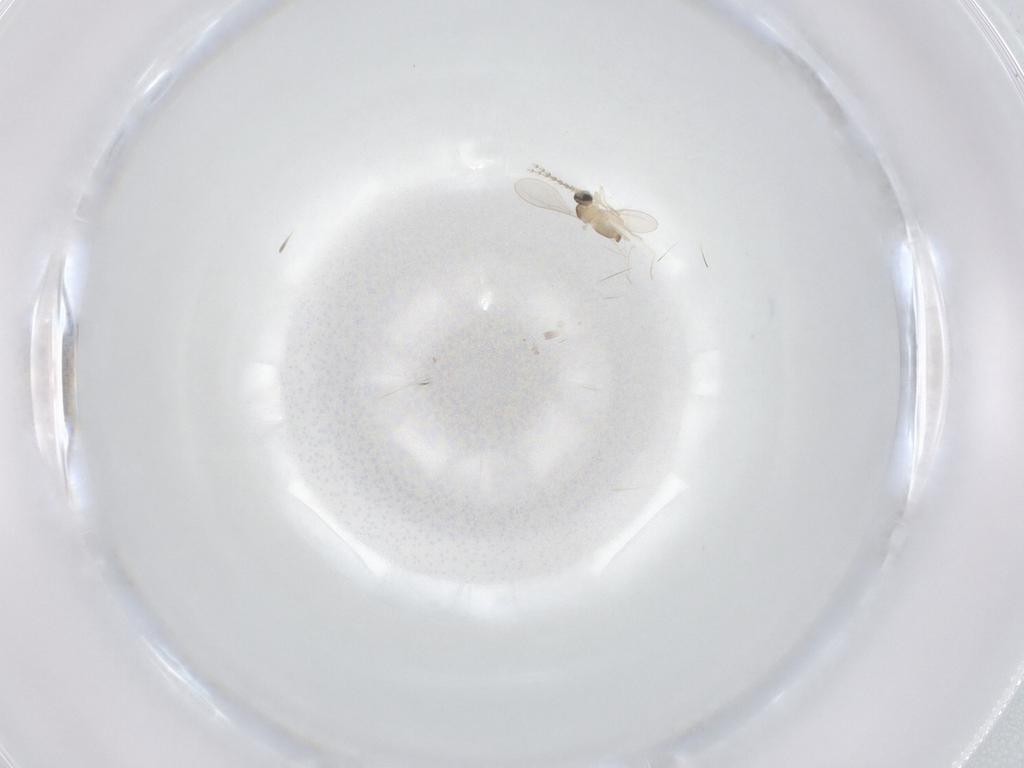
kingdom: Animalia
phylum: Arthropoda
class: Insecta
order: Diptera
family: Cecidomyiidae
